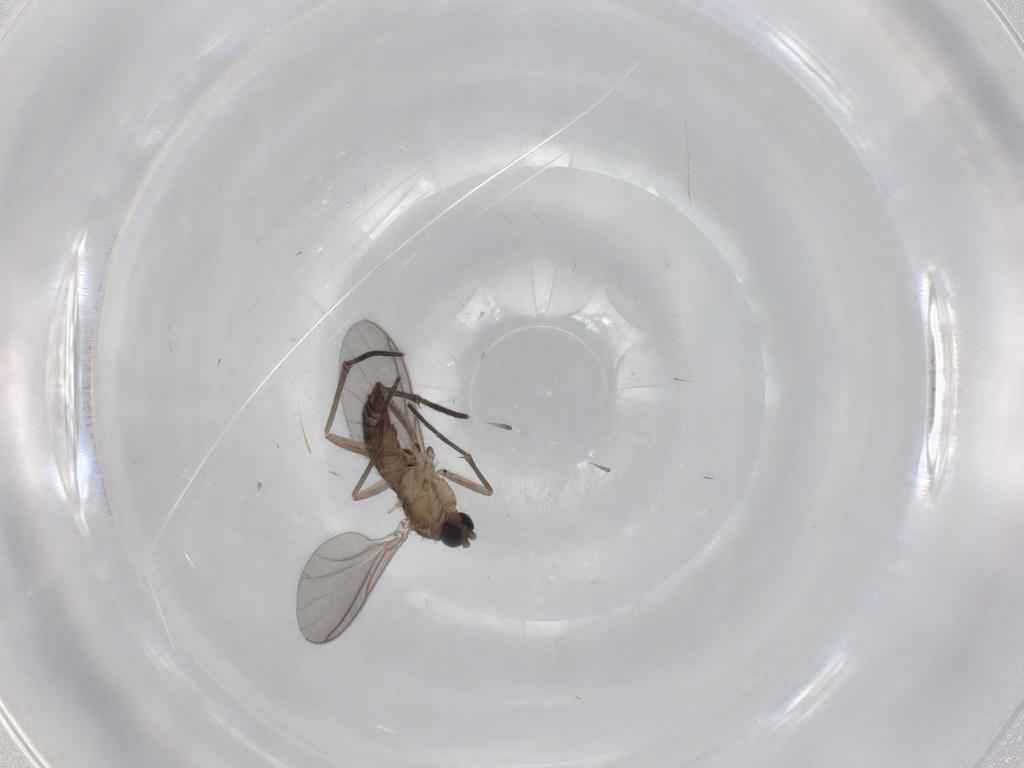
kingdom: Animalia
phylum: Arthropoda
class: Insecta
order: Diptera
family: Sciaridae
